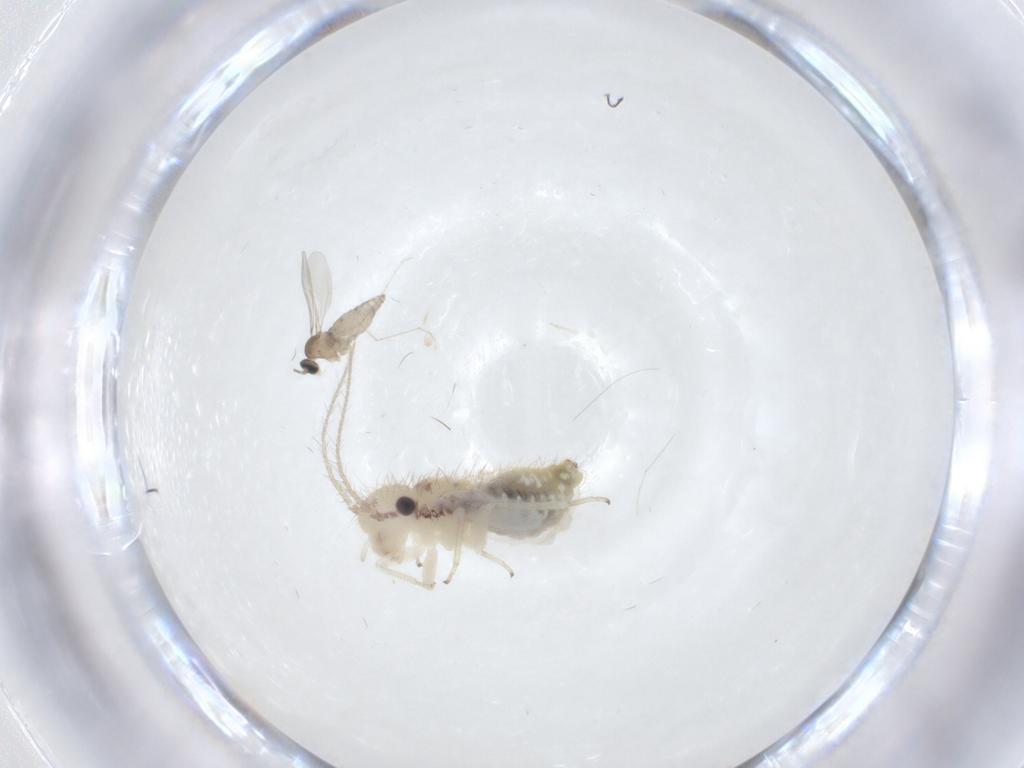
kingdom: Animalia
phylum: Arthropoda
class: Insecta
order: Diptera
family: Cecidomyiidae
